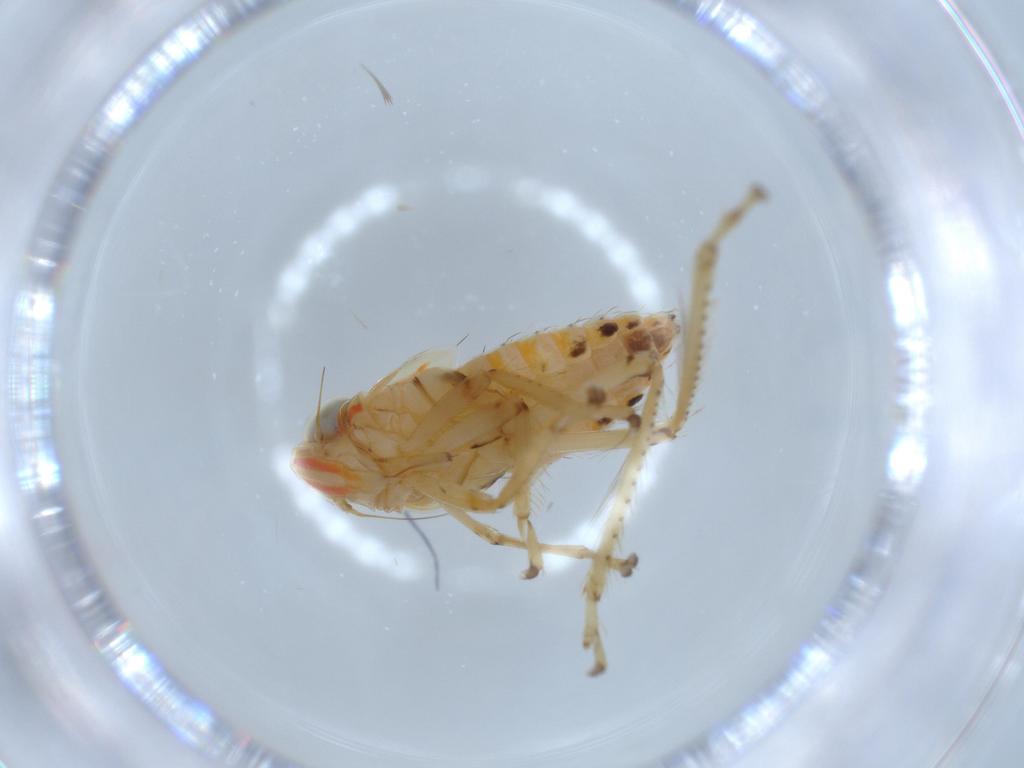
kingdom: Animalia
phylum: Arthropoda
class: Insecta
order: Hemiptera
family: Cicadellidae
